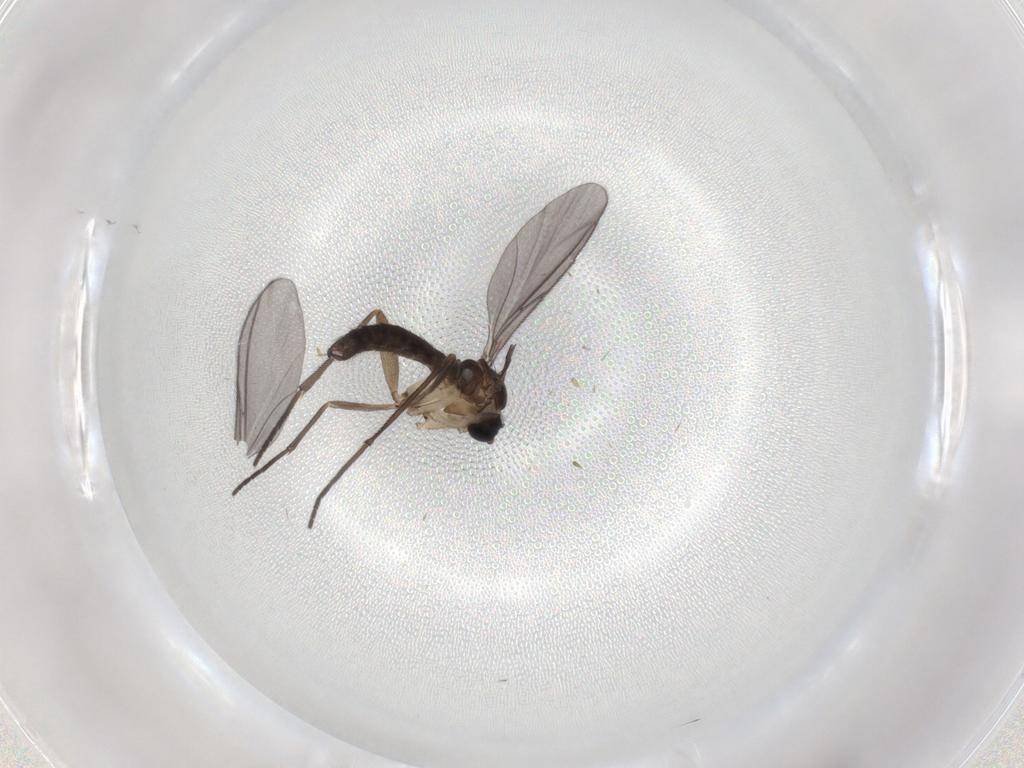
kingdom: Animalia
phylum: Arthropoda
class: Insecta
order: Diptera
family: Sciaridae
